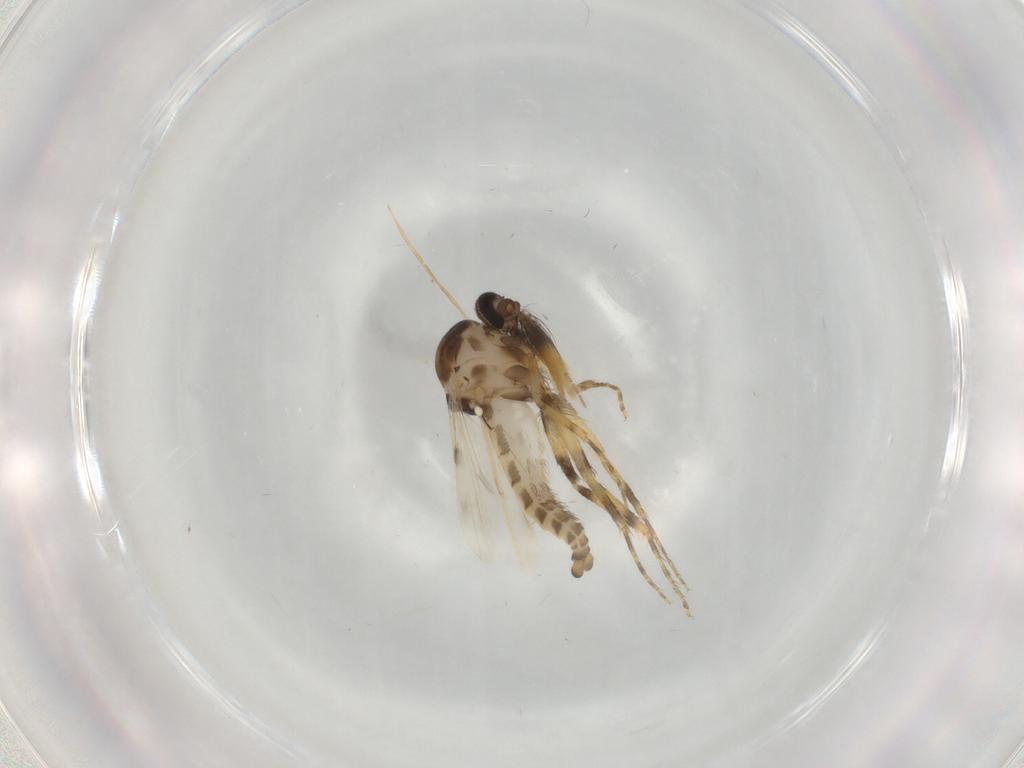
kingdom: Animalia
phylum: Arthropoda
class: Insecta
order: Diptera
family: Ceratopogonidae
